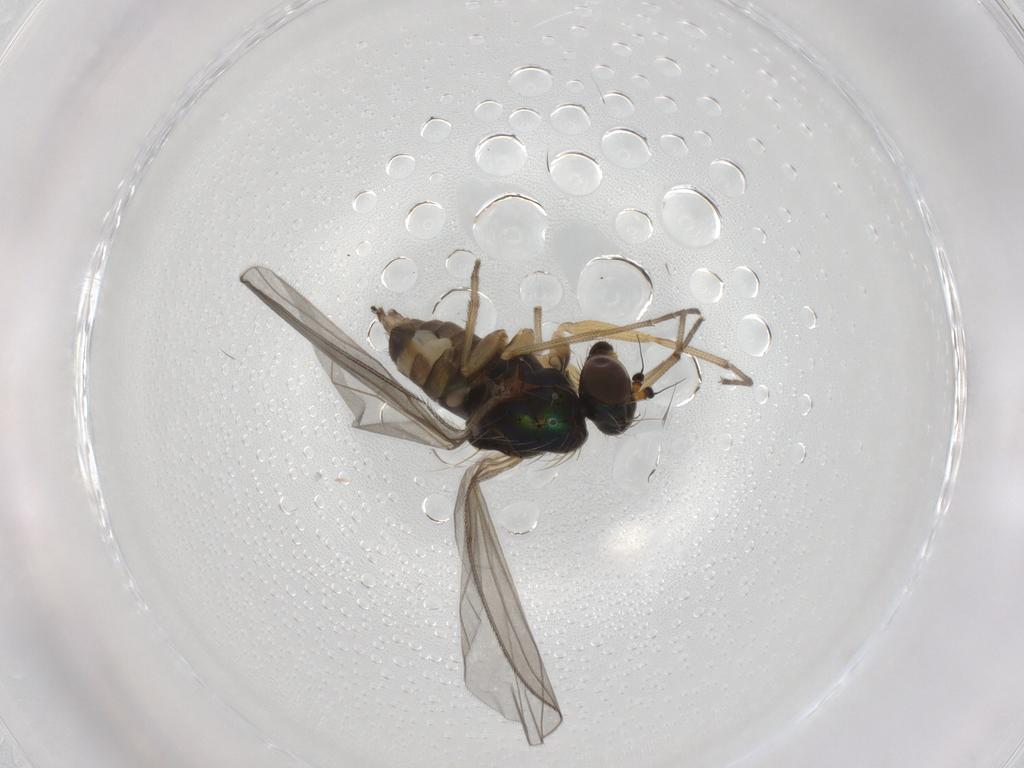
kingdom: Animalia
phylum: Arthropoda
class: Insecta
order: Diptera
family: Dolichopodidae
